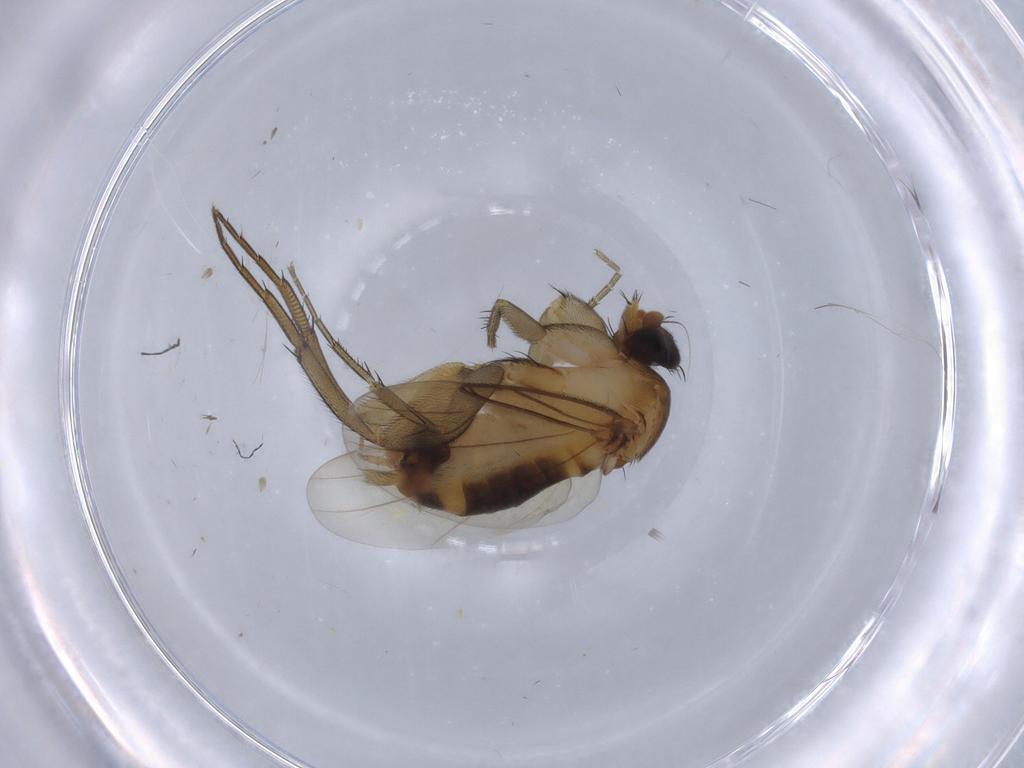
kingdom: Animalia
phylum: Arthropoda
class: Insecta
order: Diptera
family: Phoridae
